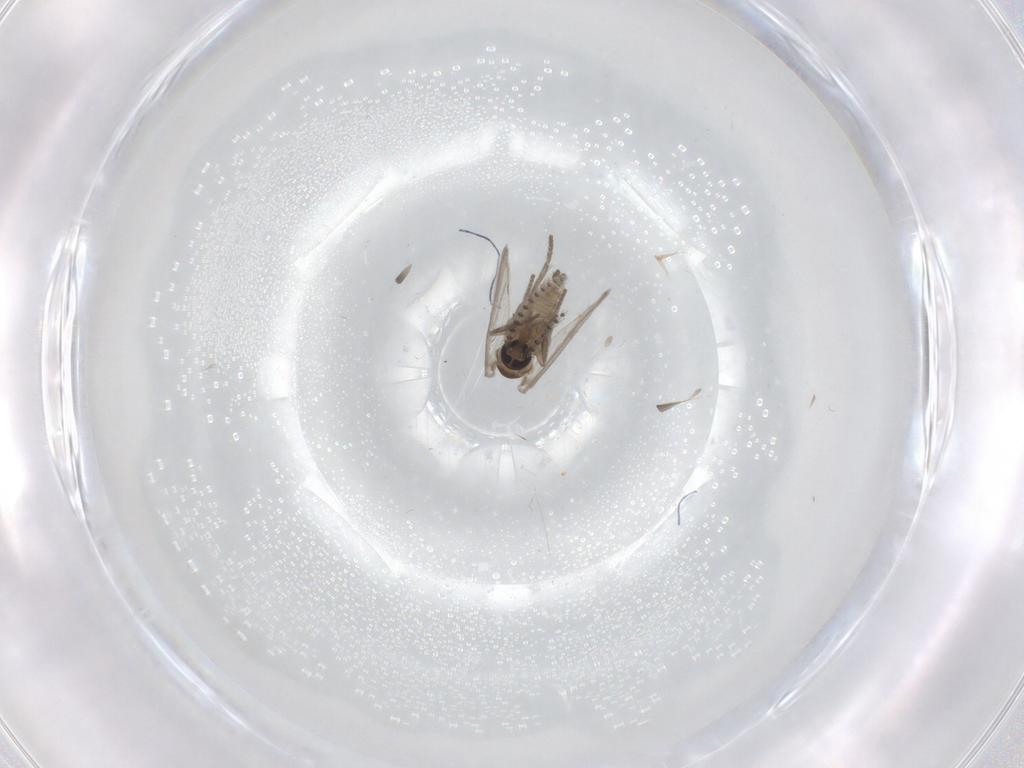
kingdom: Animalia
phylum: Arthropoda
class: Insecta
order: Diptera
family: Psychodidae
